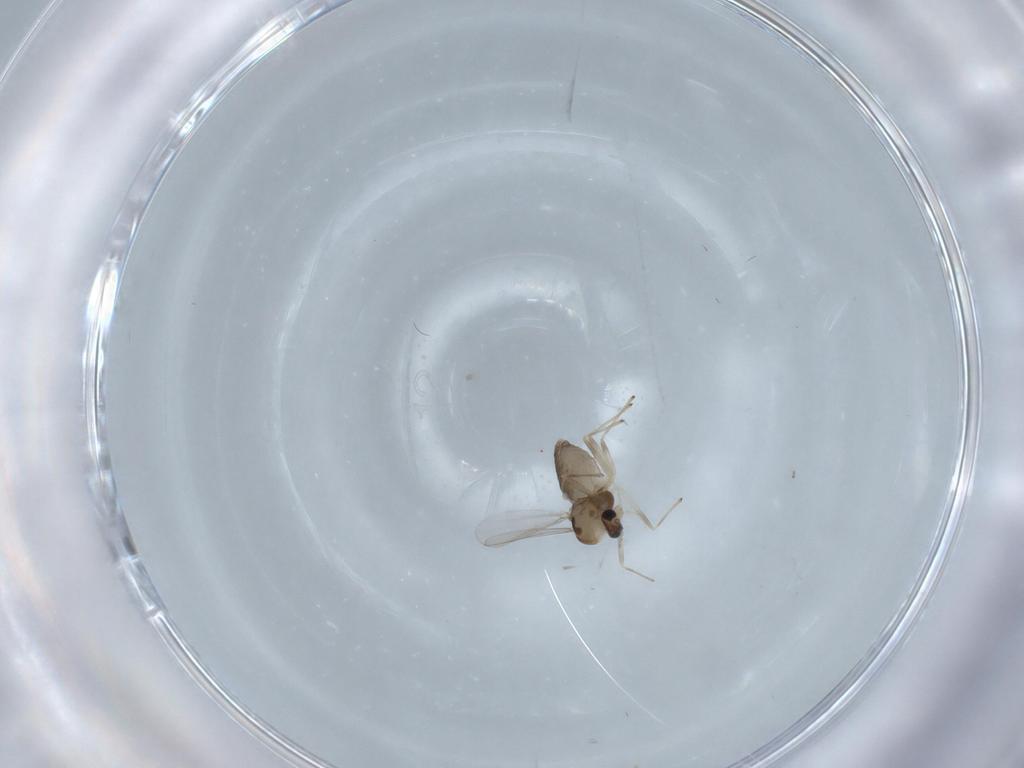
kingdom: Animalia
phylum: Arthropoda
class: Insecta
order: Diptera
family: Chironomidae
